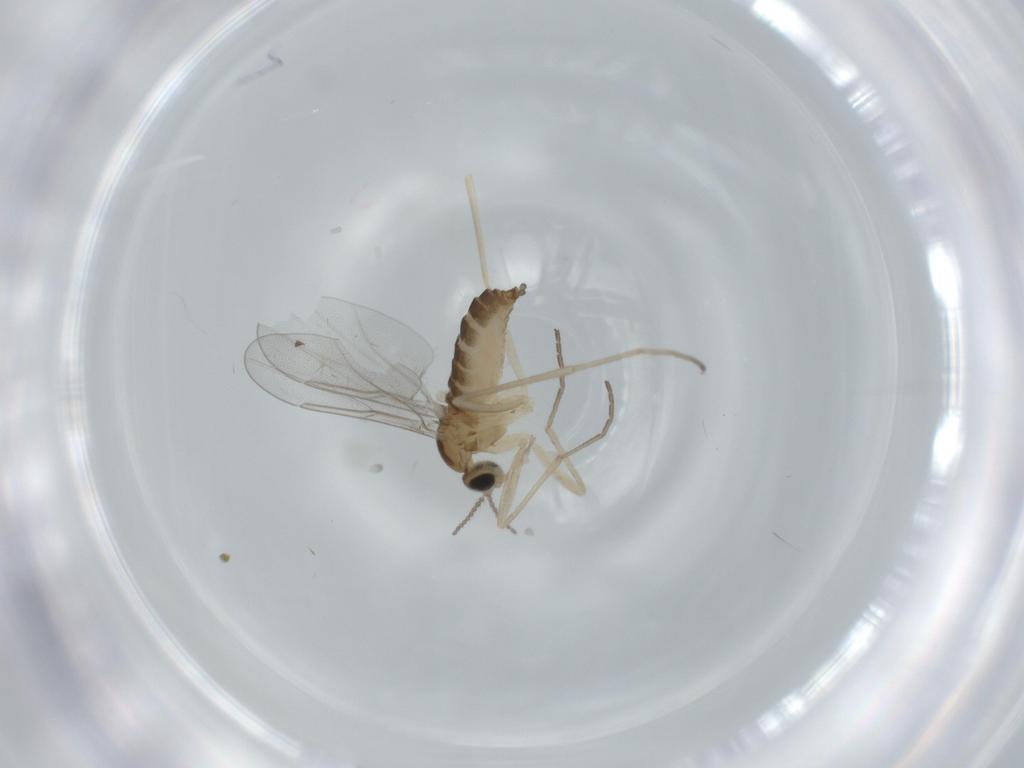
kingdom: Animalia
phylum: Arthropoda
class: Insecta
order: Diptera
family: Cecidomyiidae
